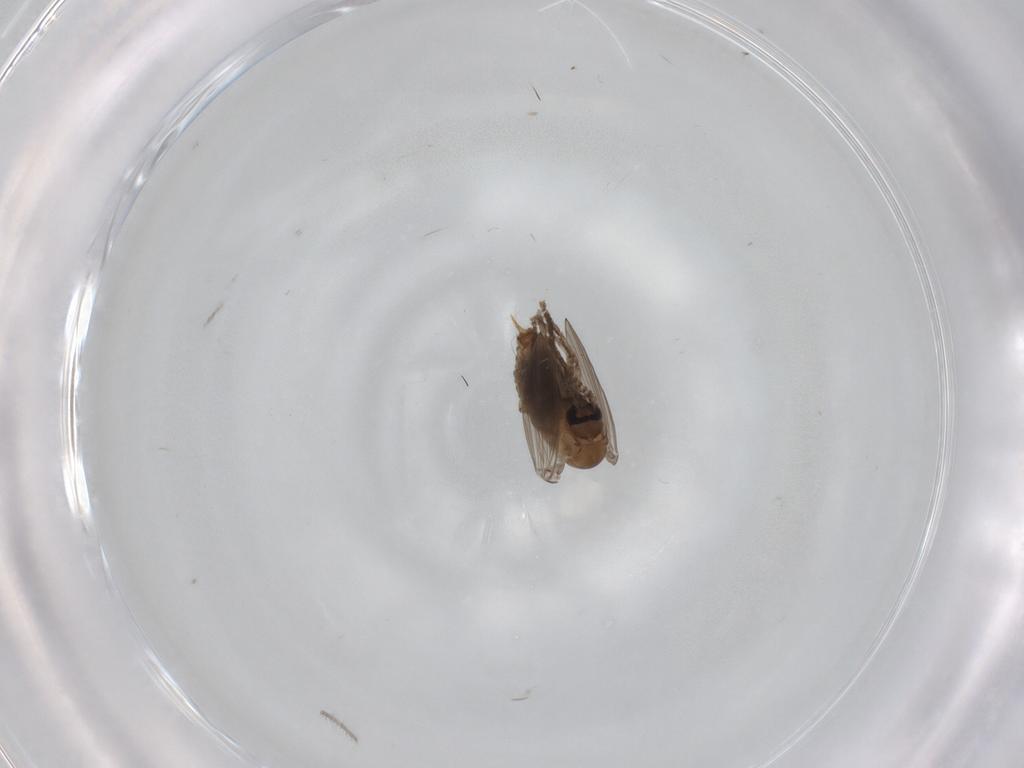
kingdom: Animalia
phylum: Arthropoda
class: Insecta
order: Diptera
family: Psychodidae
